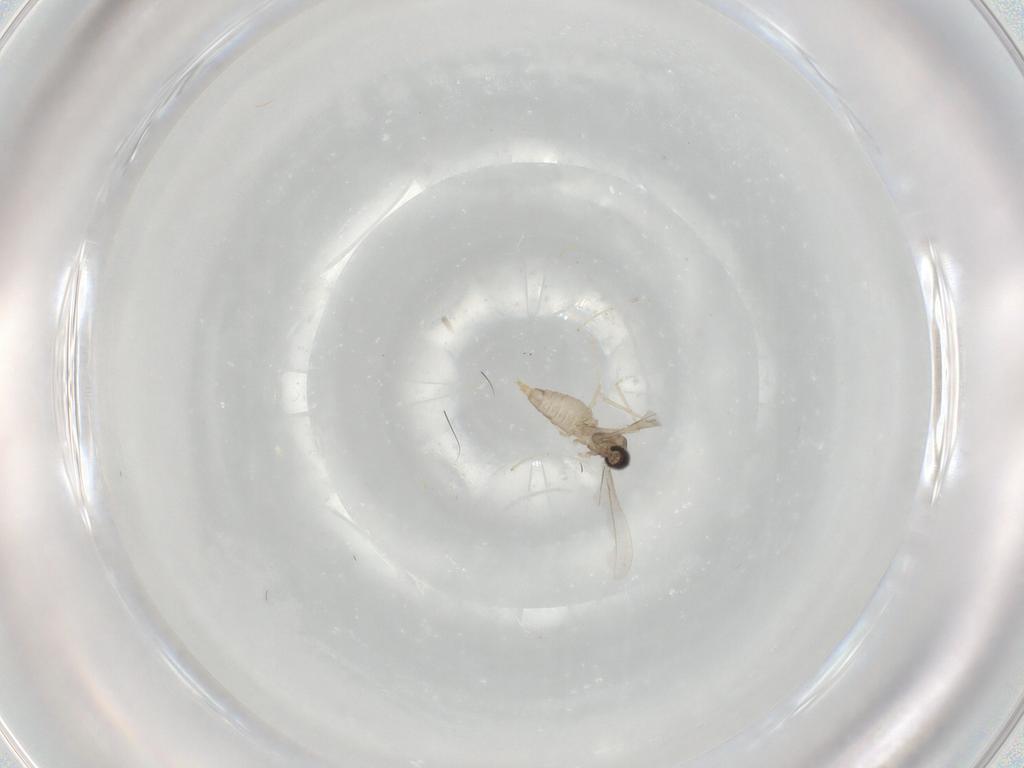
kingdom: Animalia
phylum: Arthropoda
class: Insecta
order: Diptera
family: Cecidomyiidae
